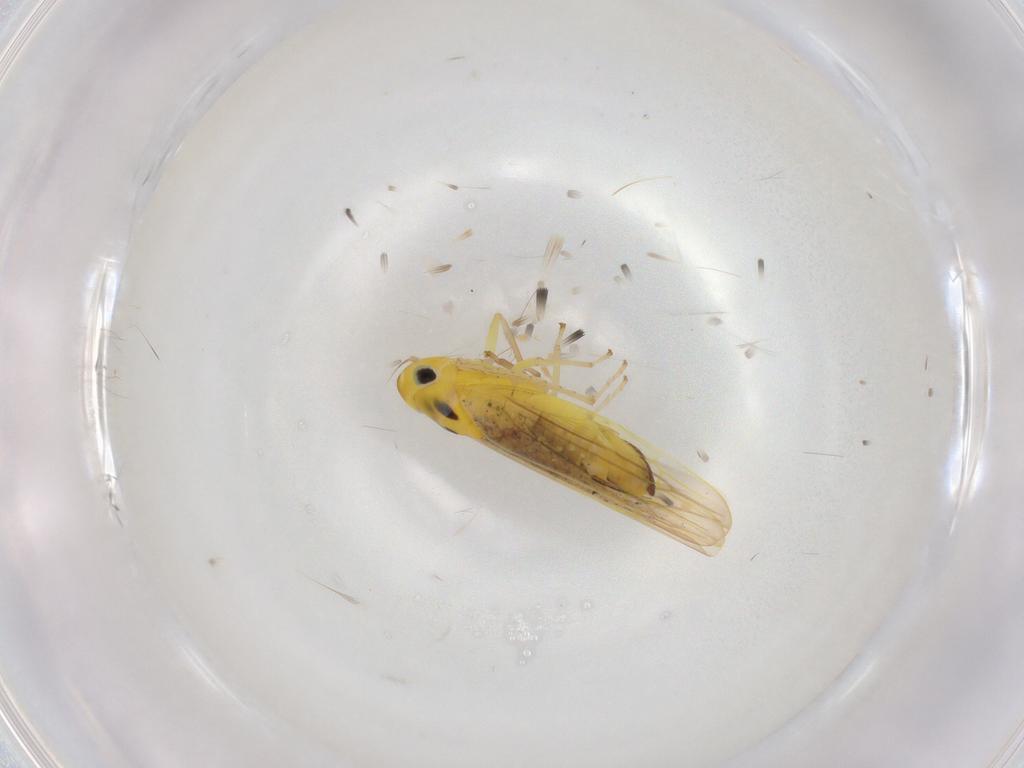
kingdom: Animalia
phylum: Arthropoda
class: Insecta
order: Hemiptera
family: Cicadellidae
